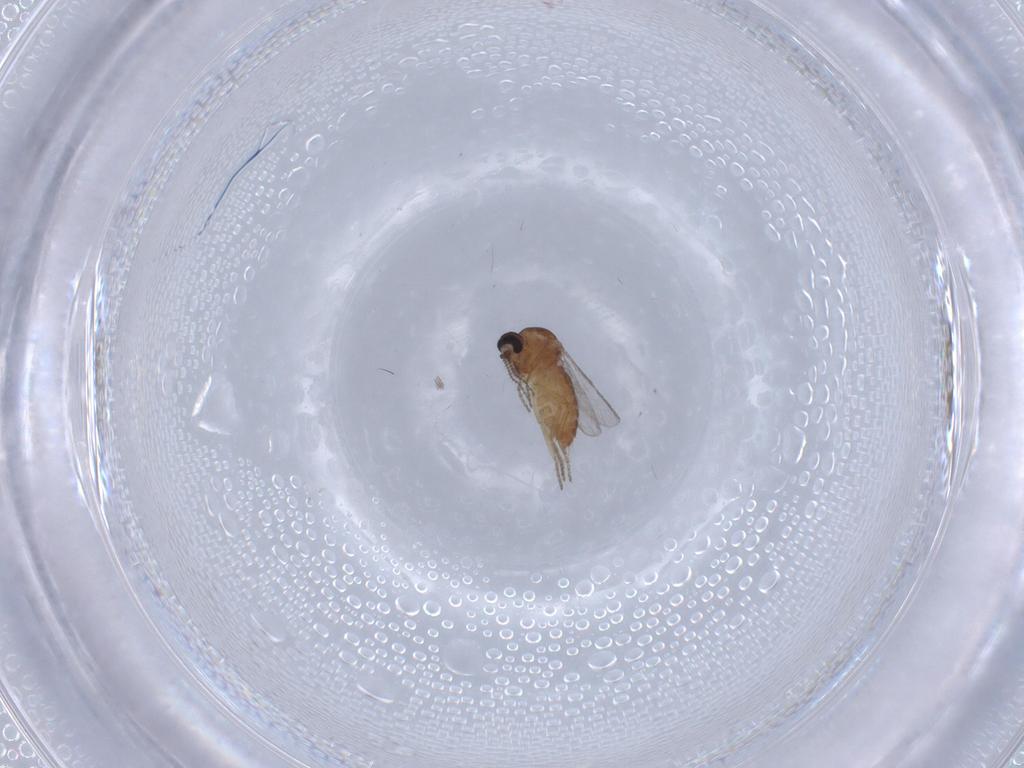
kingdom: Animalia
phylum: Arthropoda
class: Insecta
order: Diptera
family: Ceratopogonidae
